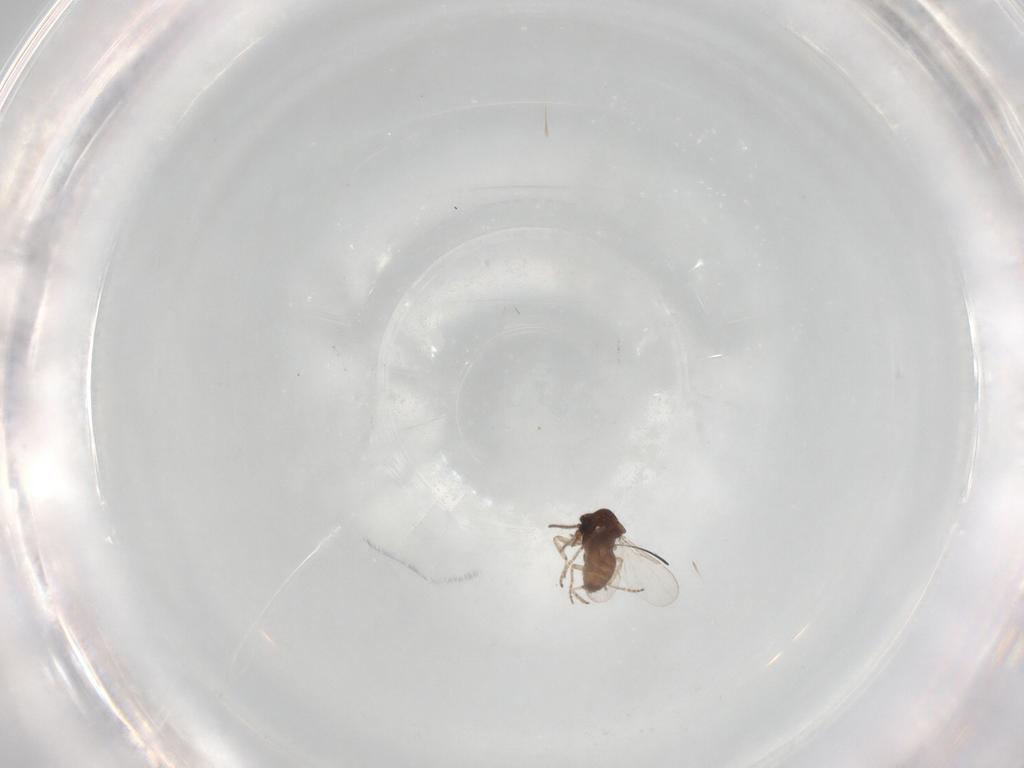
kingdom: Animalia
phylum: Arthropoda
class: Insecta
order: Diptera
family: Ceratopogonidae
